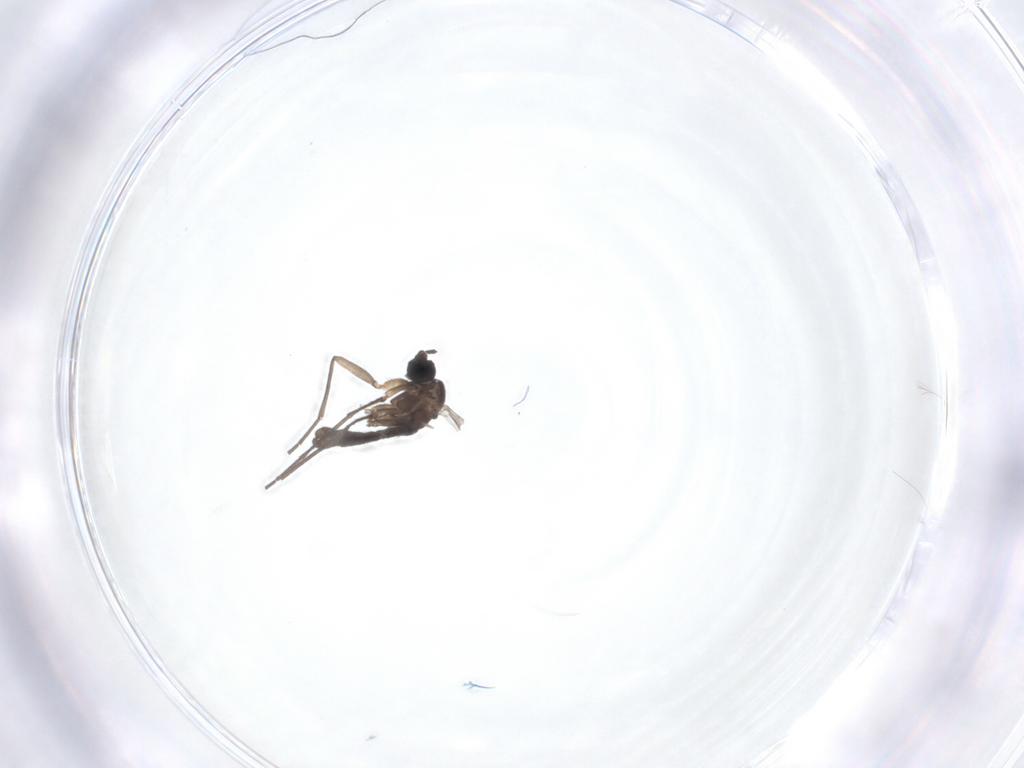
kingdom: Animalia
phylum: Arthropoda
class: Insecta
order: Diptera
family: Sciaridae
